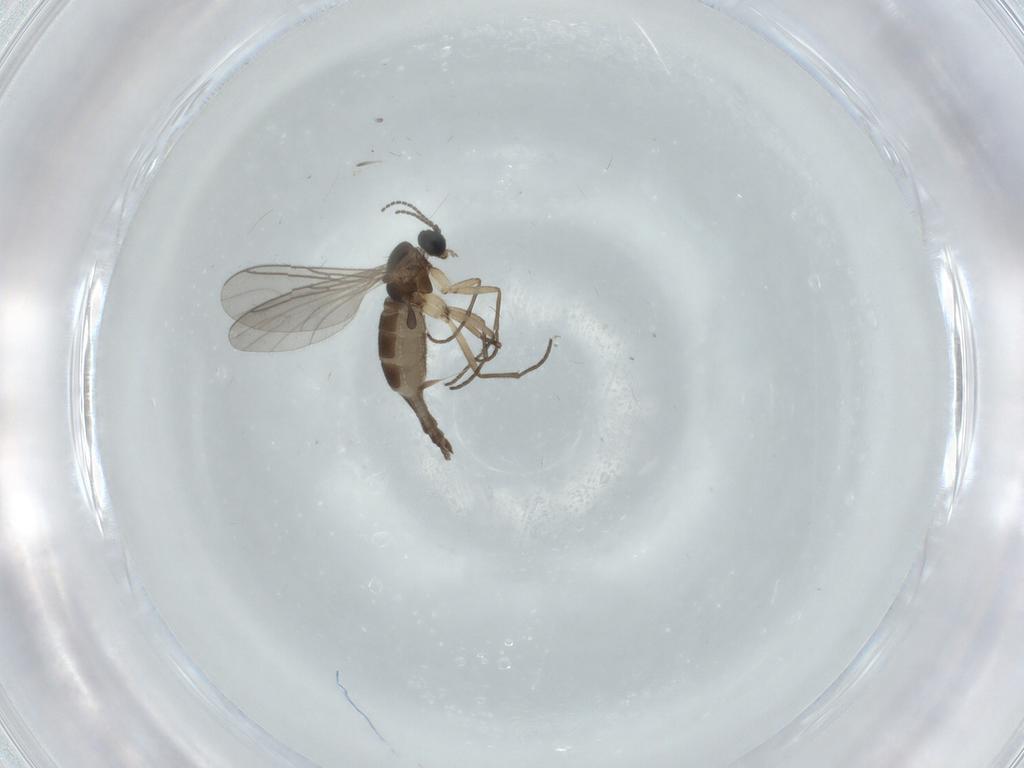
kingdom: Animalia
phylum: Arthropoda
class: Insecta
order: Diptera
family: Sciaridae
